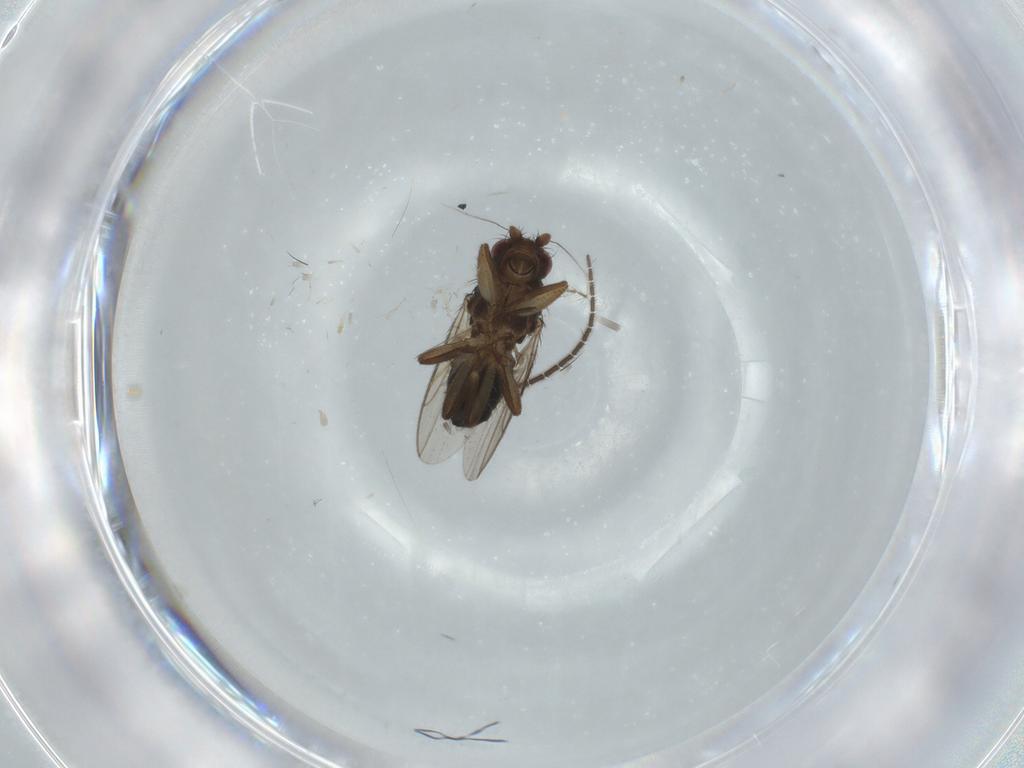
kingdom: Animalia
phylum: Arthropoda
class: Insecta
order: Diptera
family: Sphaeroceridae
